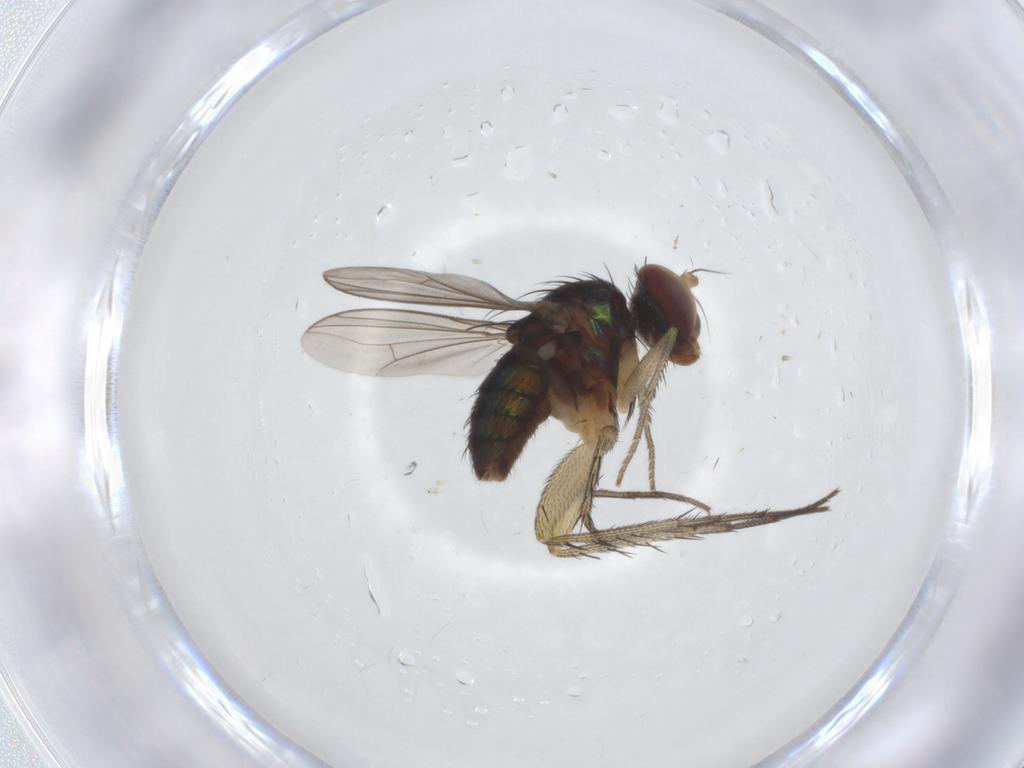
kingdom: Animalia
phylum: Arthropoda
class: Insecta
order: Diptera
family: Dolichopodidae
